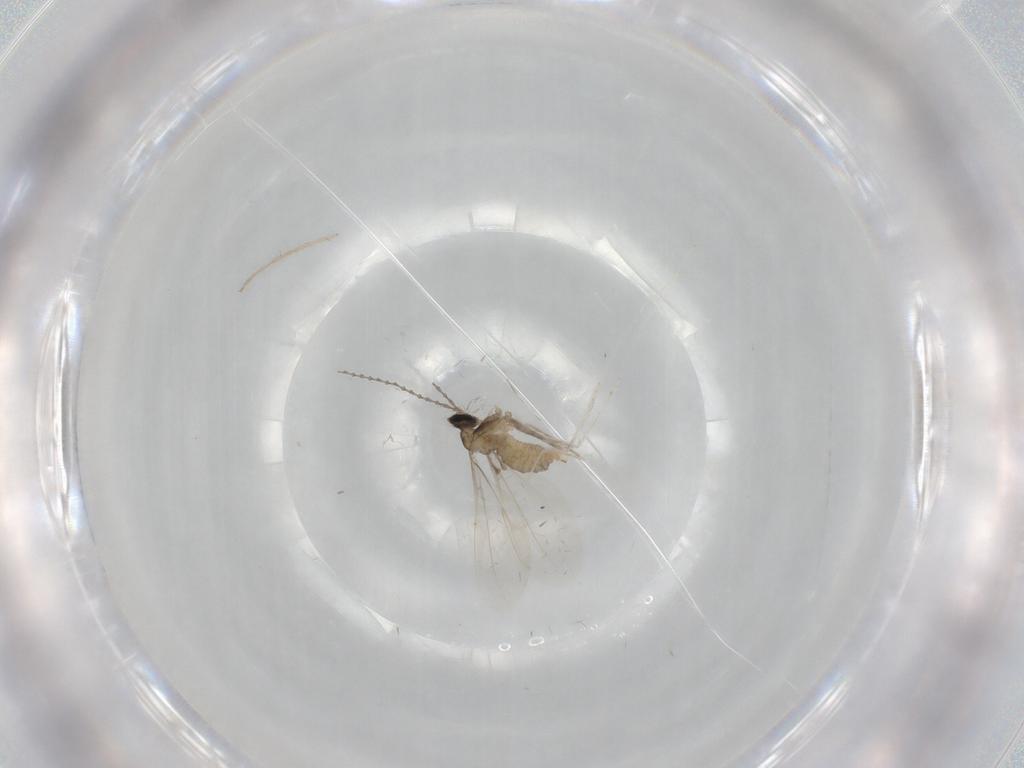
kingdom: Animalia
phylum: Arthropoda
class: Insecta
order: Diptera
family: Cecidomyiidae
